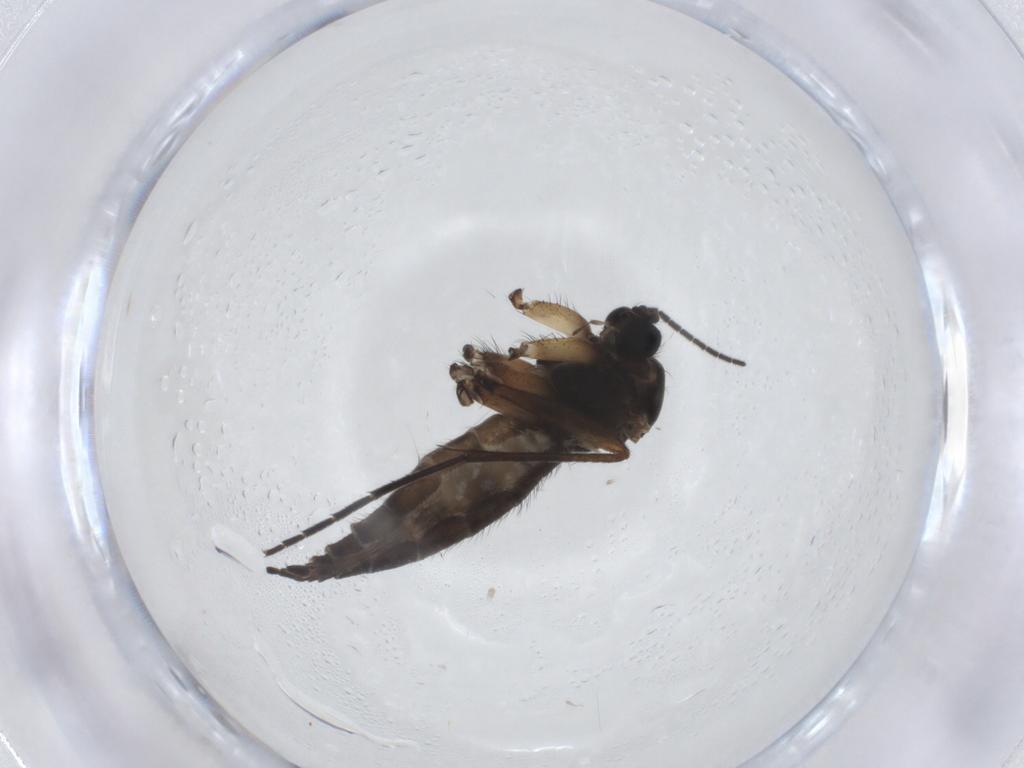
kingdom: Animalia
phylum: Arthropoda
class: Insecta
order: Diptera
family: Sciaridae
